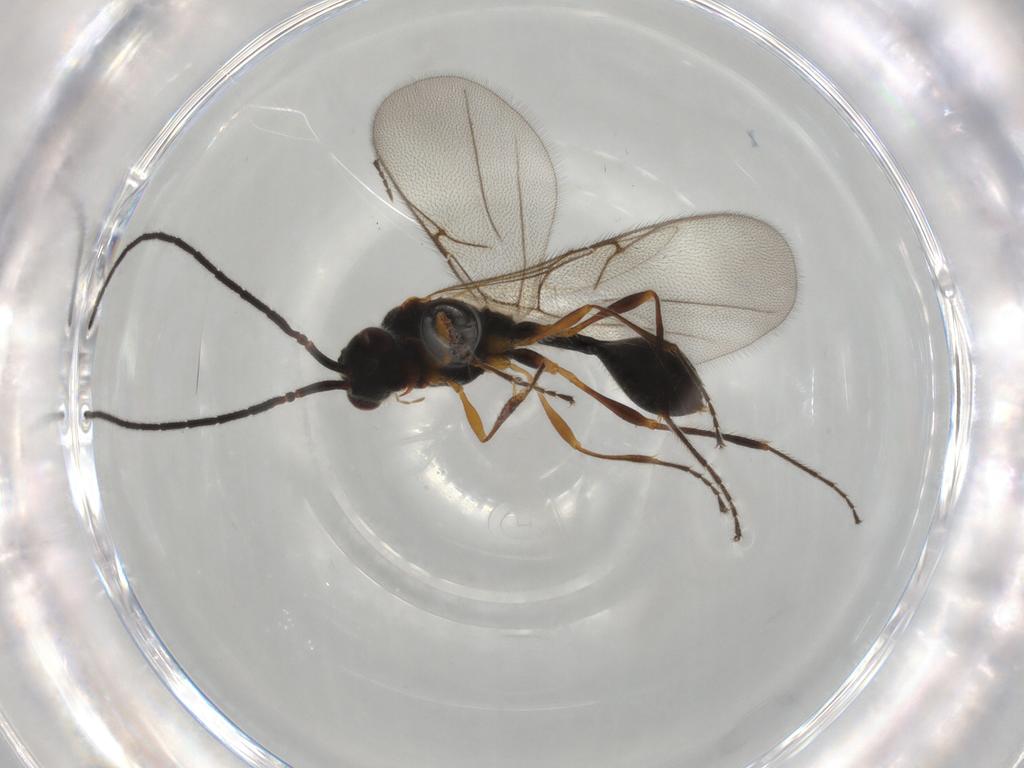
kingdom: Animalia
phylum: Arthropoda
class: Insecta
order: Hymenoptera
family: Diapriidae
